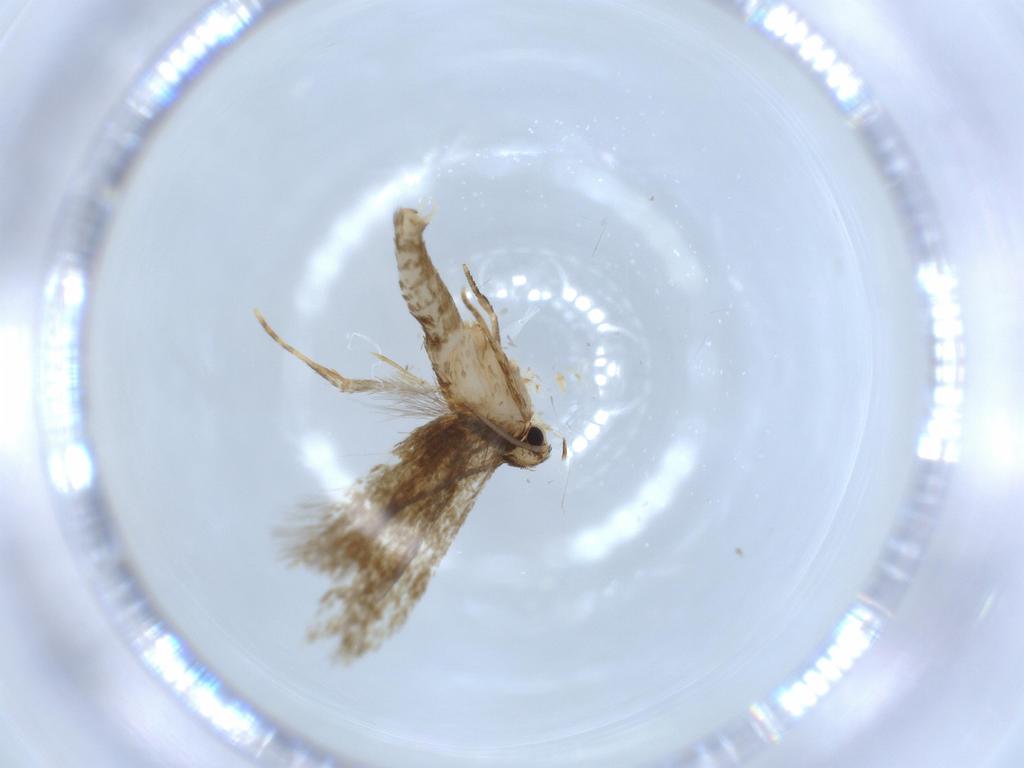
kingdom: Animalia
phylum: Arthropoda
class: Insecta
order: Lepidoptera
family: Tineidae
